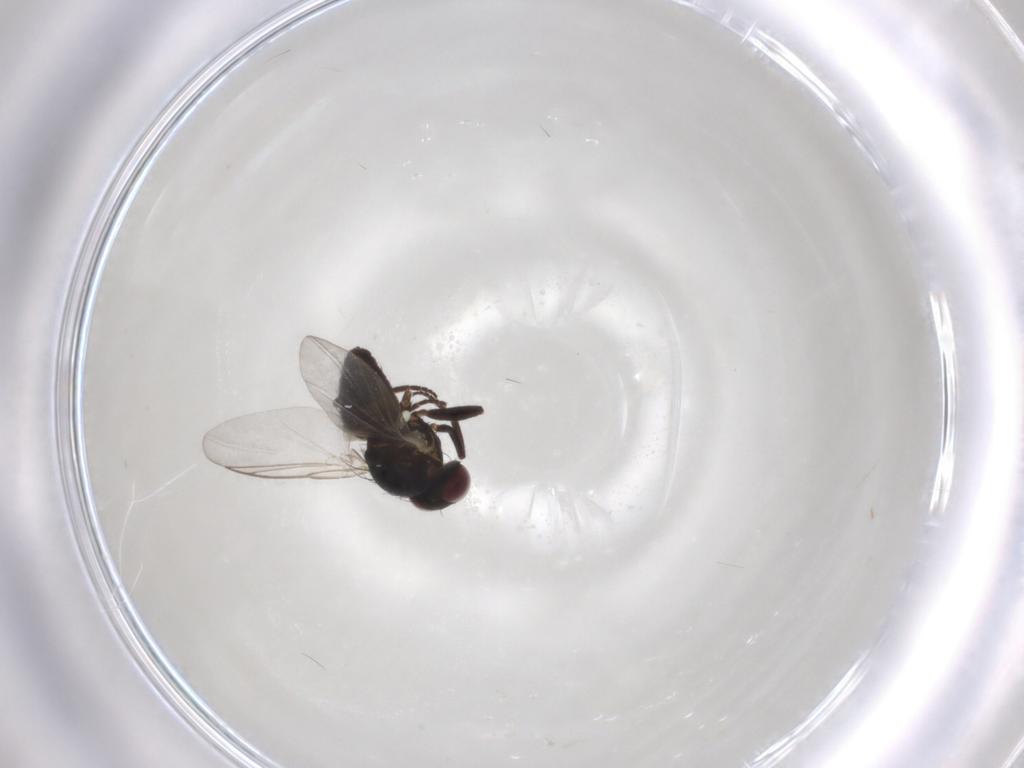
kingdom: Animalia
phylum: Arthropoda
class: Insecta
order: Diptera
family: Agromyzidae
